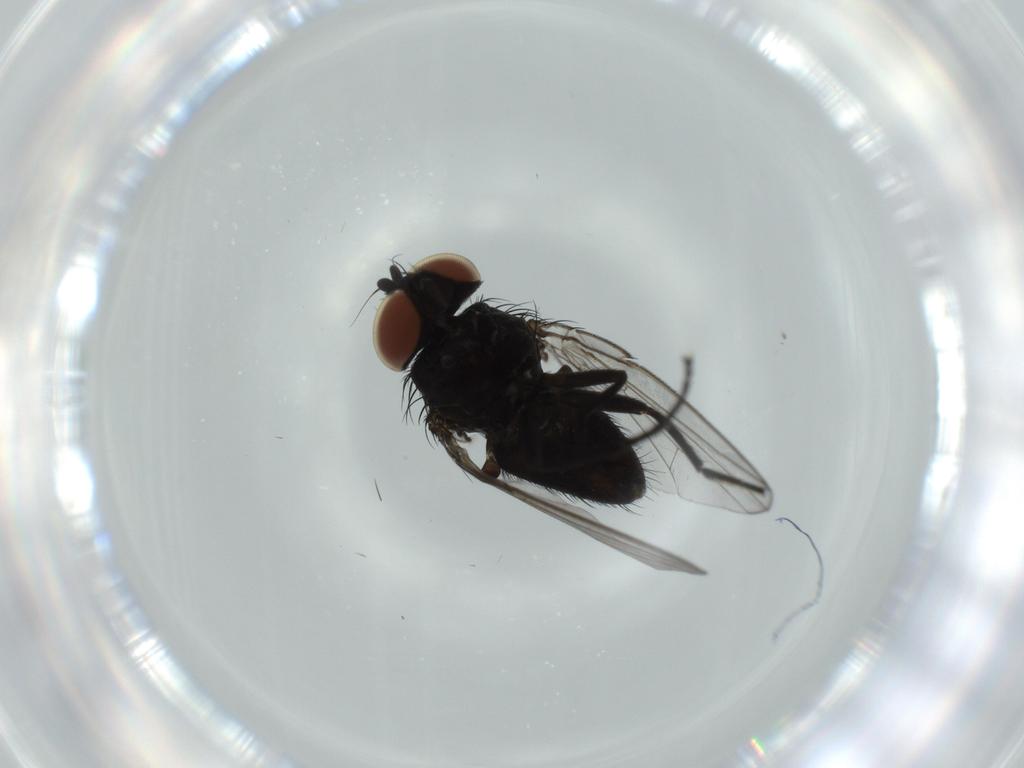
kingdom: Animalia
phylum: Arthropoda
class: Insecta
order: Diptera
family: Milichiidae
